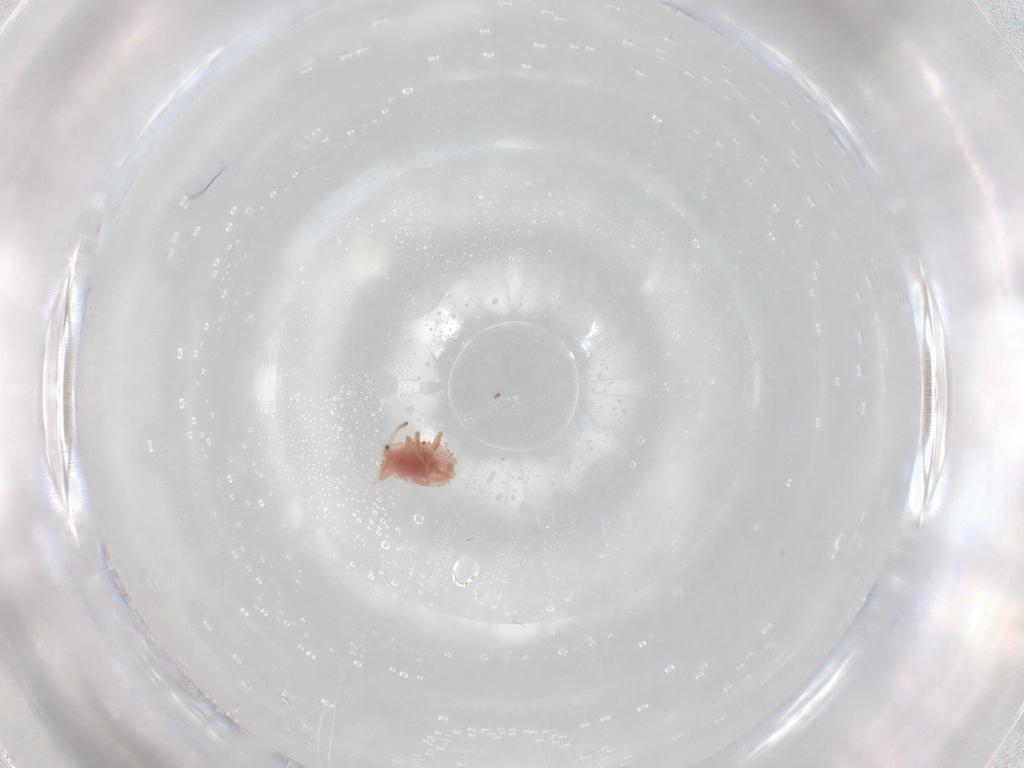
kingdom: Animalia
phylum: Arthropoda
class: Insecta
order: Hemiptera
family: Coccoidea_incertae_sedis
